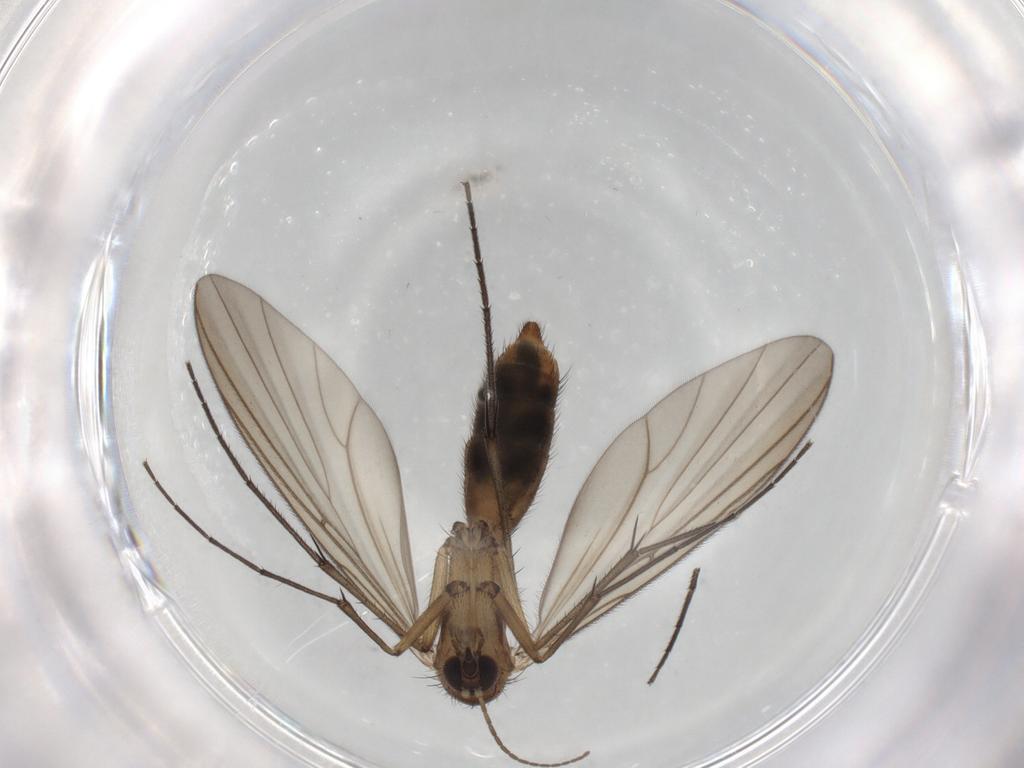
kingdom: Animalia
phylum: Arthropoda
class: Insecta
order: Diptera
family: Mycetophilidae
